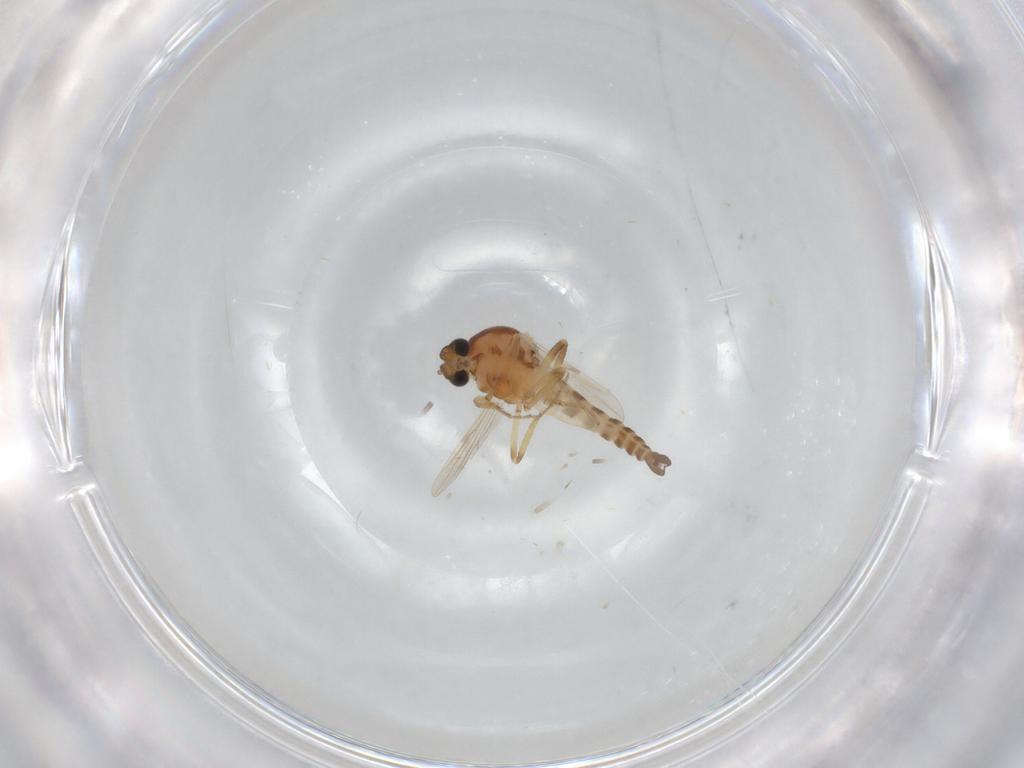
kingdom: Animalia
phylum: Arthropoda
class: Insecta
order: Diptera
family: Ceratopogonidae
